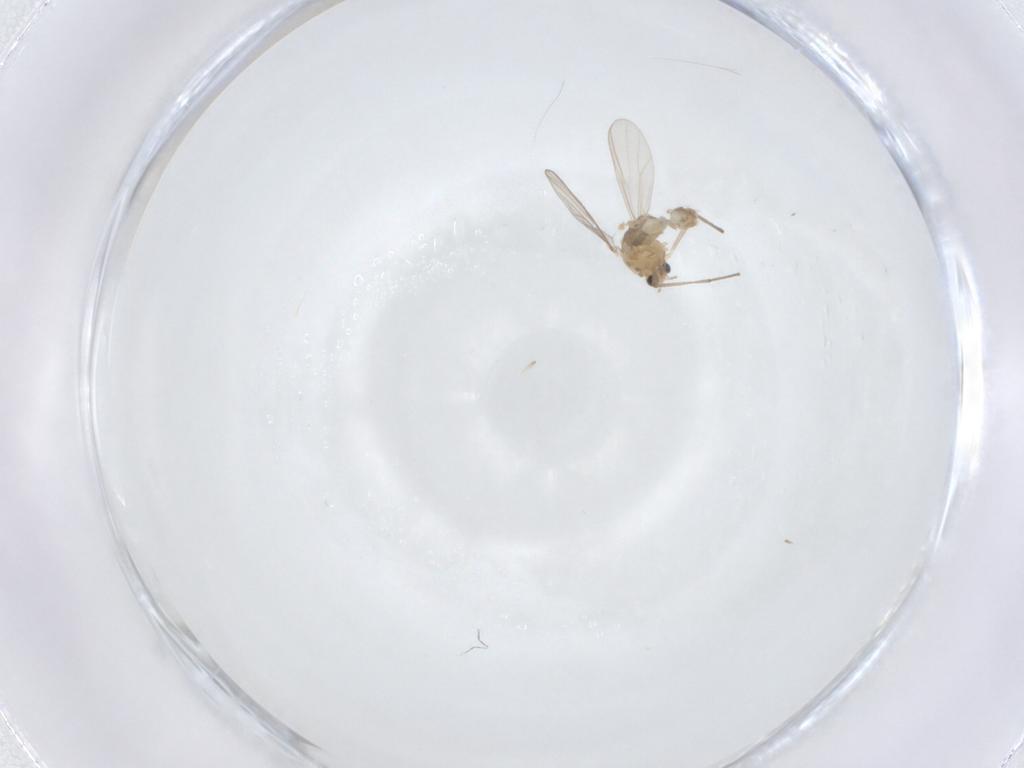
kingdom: Animalia
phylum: Arthropoda
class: Insecta
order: Diptera
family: Chironomidae
